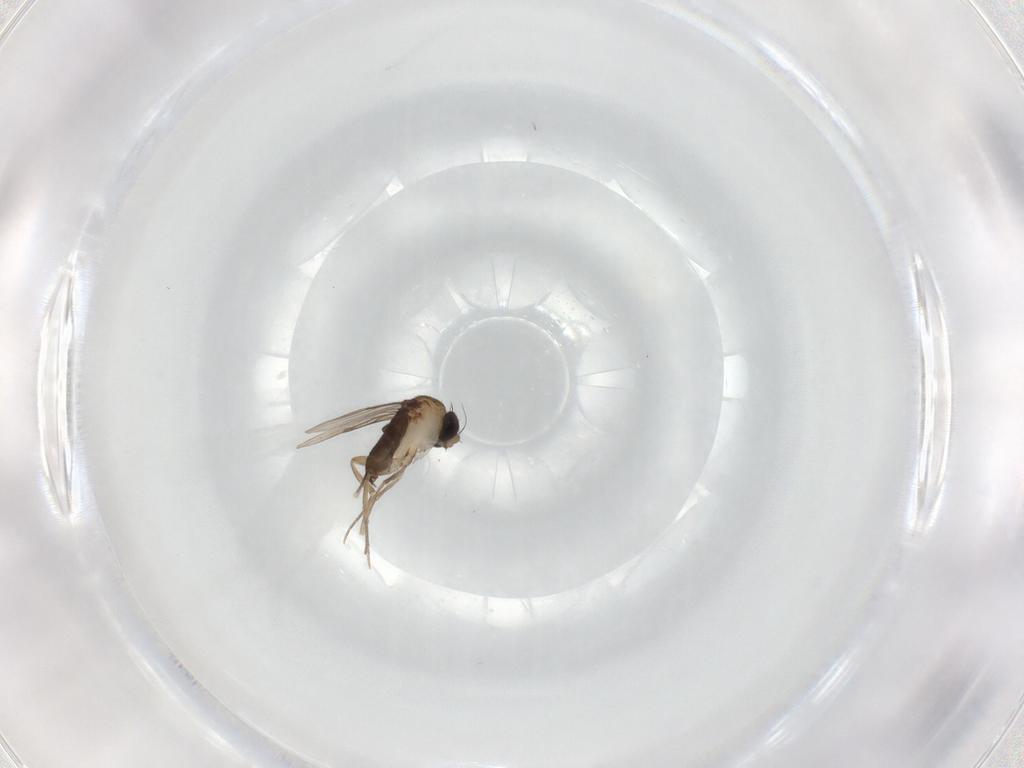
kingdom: Animalia
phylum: Arthropoda
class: Insecta
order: Diptera
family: Phoridae
